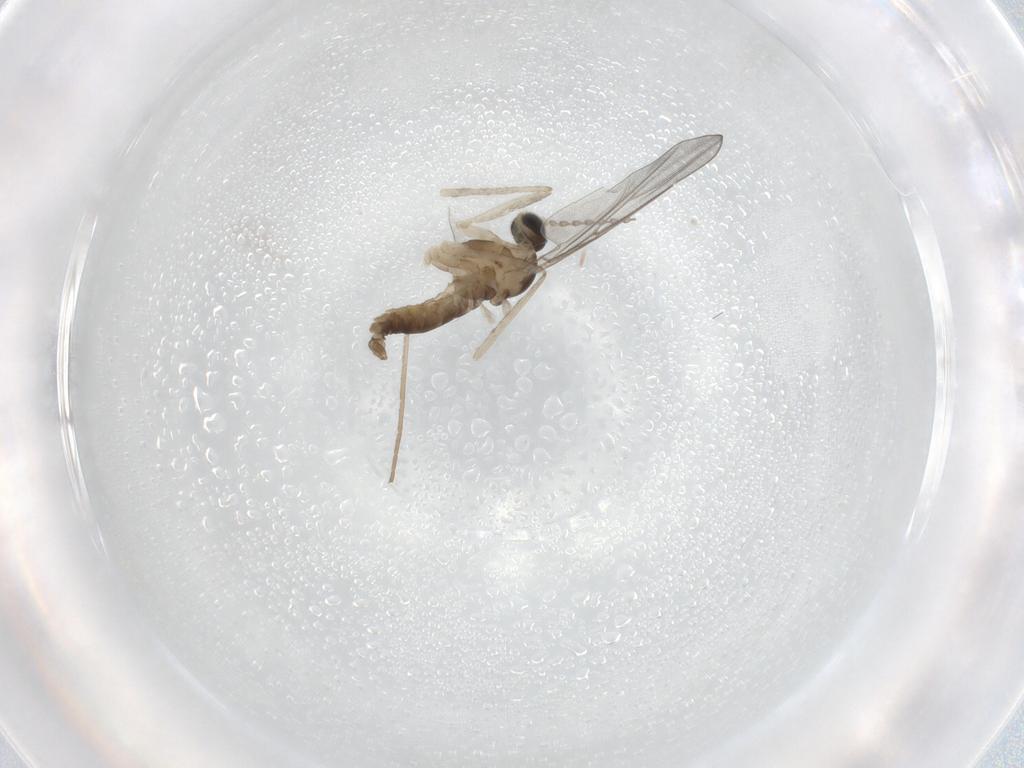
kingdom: Animalia
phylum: Arthropoda
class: Insecta
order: Diptera
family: Cecidomyiidae
